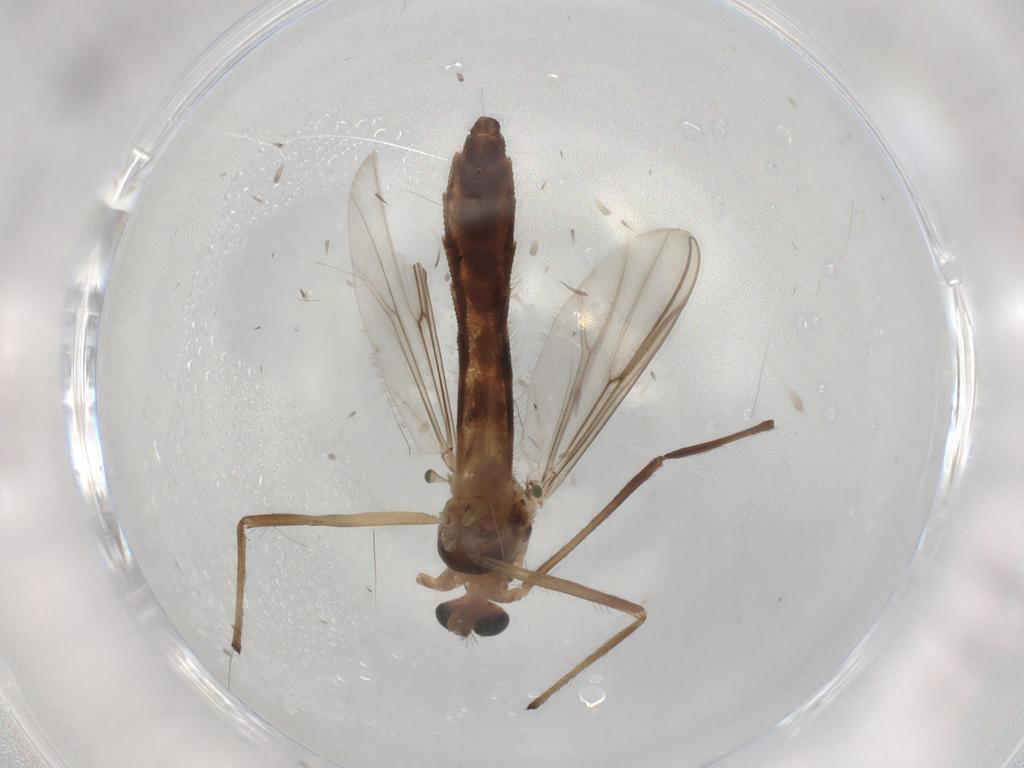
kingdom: Animalia
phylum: Arthropoda
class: Insecta
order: Diptera
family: Chironomidae
